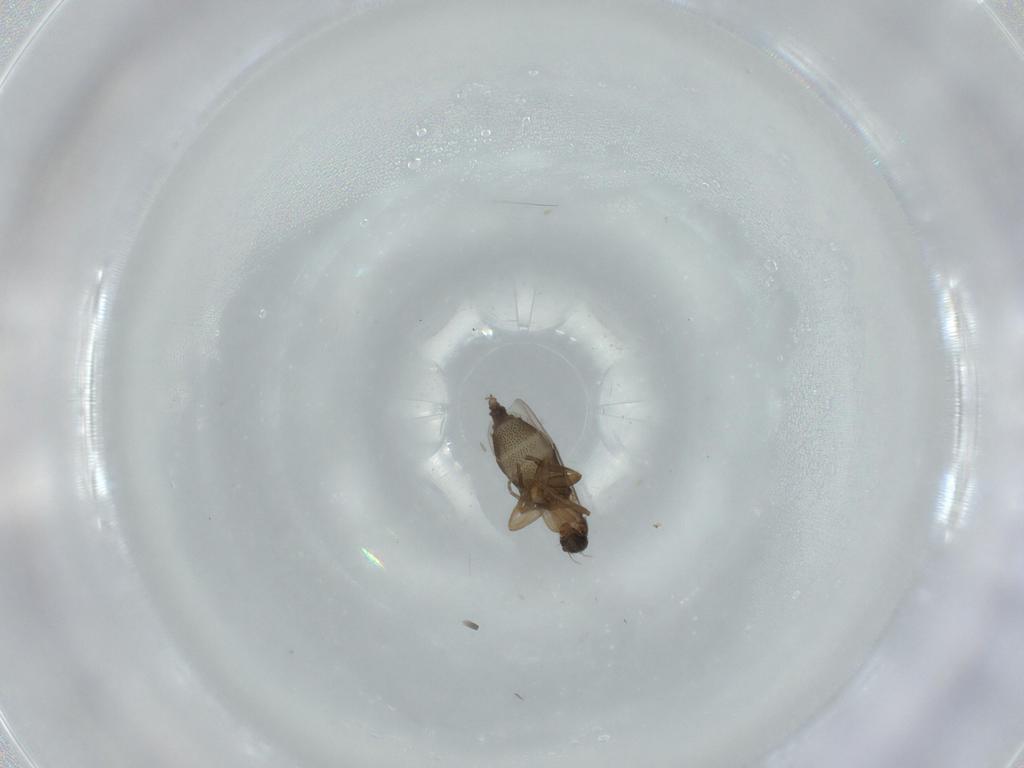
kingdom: Animalia
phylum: Arthropoda
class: Insecta
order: Diptera
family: Phoridae
